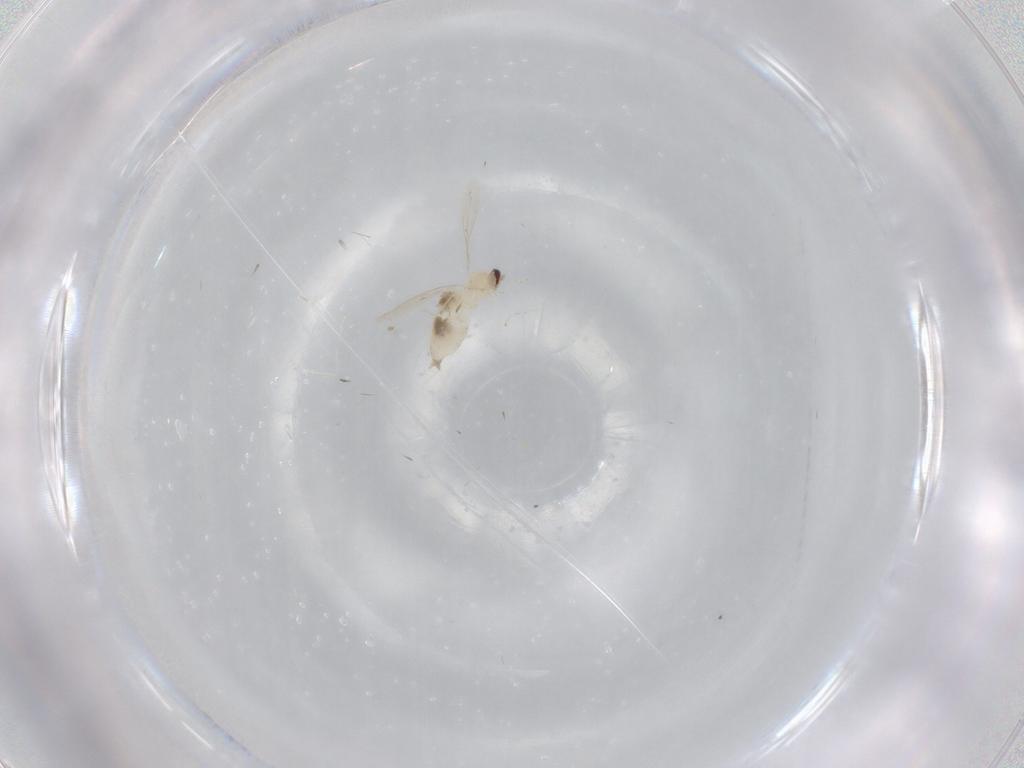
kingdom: Animalia
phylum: Arthropoda
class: Insecta
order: Diptera
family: Cecidomyiidae
